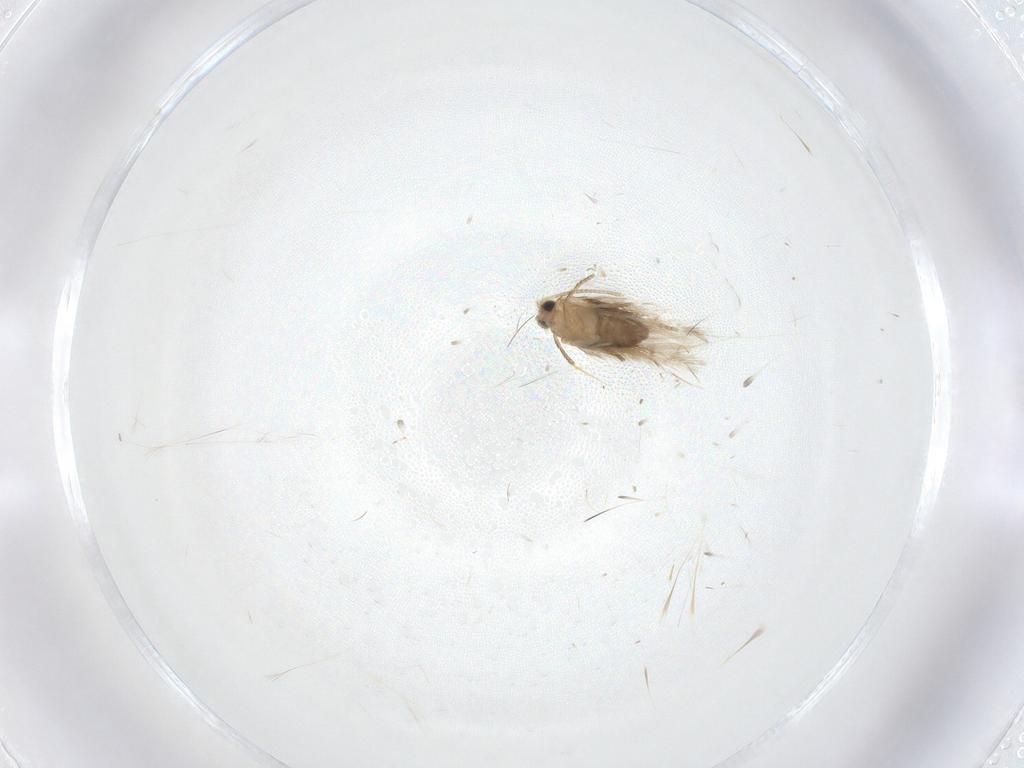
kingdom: Animalia
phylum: Arthropoda
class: Insecta
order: Lepidoptera
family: Nepticulidae
